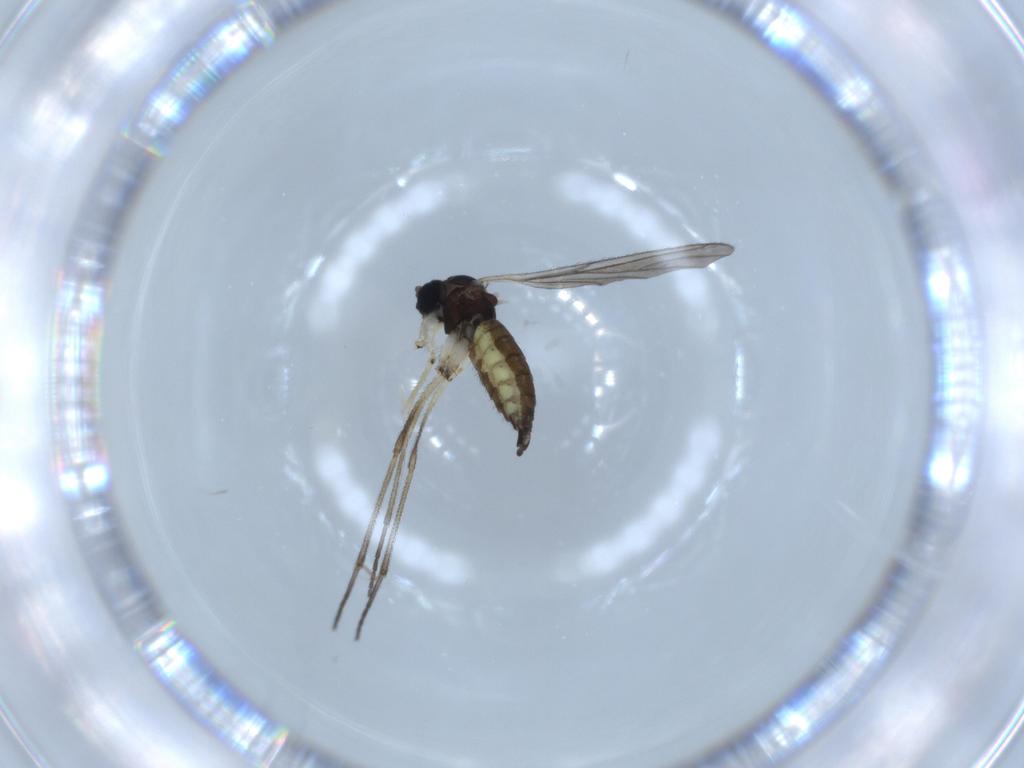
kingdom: Animalia
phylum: Arthropoda
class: Insecta
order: Diptera
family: Sciaridae
